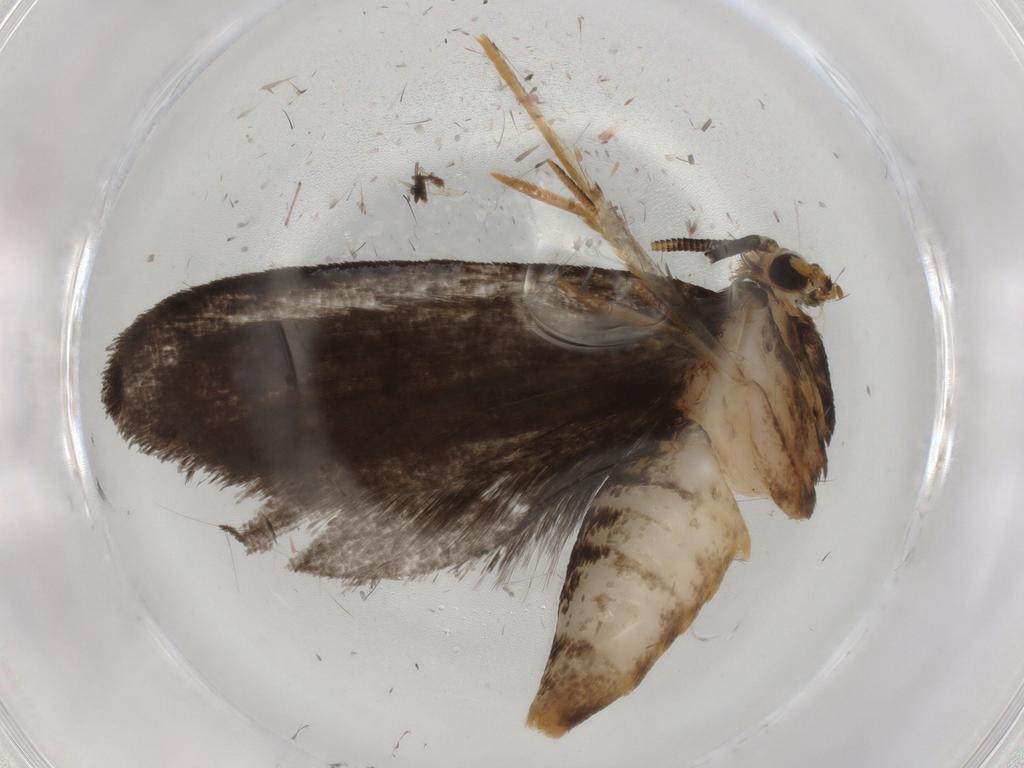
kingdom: Animalia
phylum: Arthropoda
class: Insecta
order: Lepidoptera
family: Tineidae
